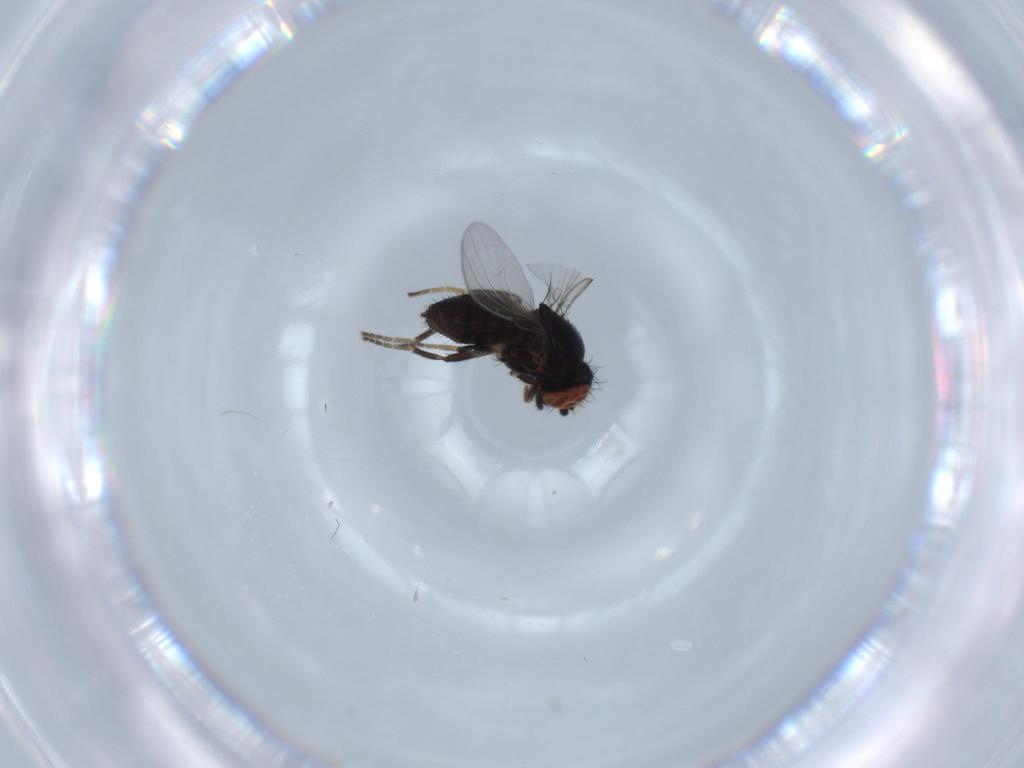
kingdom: Animalia
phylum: Arthropoda
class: Insecta
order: Diptera
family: Milichiidae
